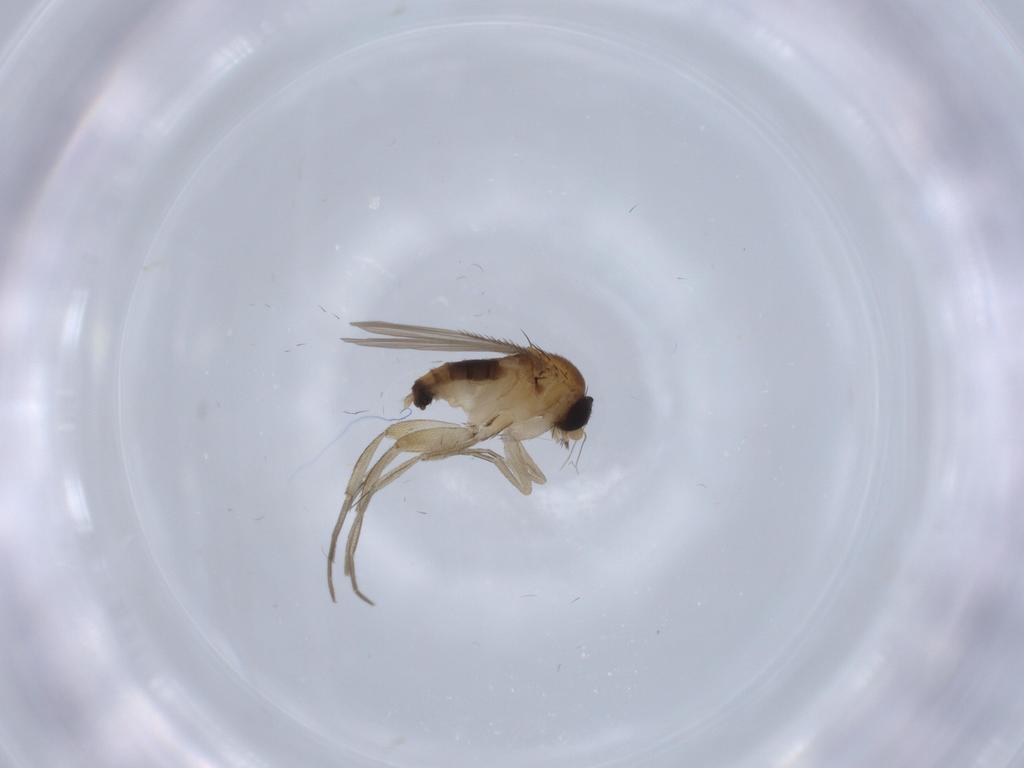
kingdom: Animalia
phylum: Arthropoda
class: Insecta
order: Diptera
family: Phoridae
